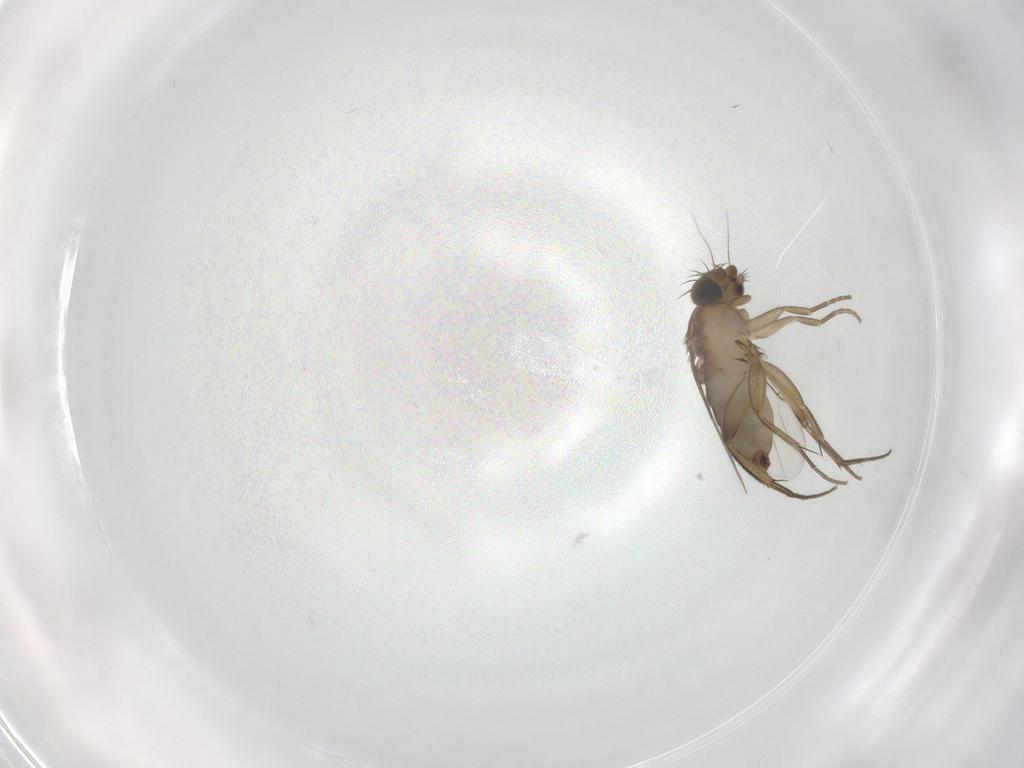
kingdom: Animalia
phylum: Arthropoda
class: Insecta
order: Diptera
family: Phoridae
